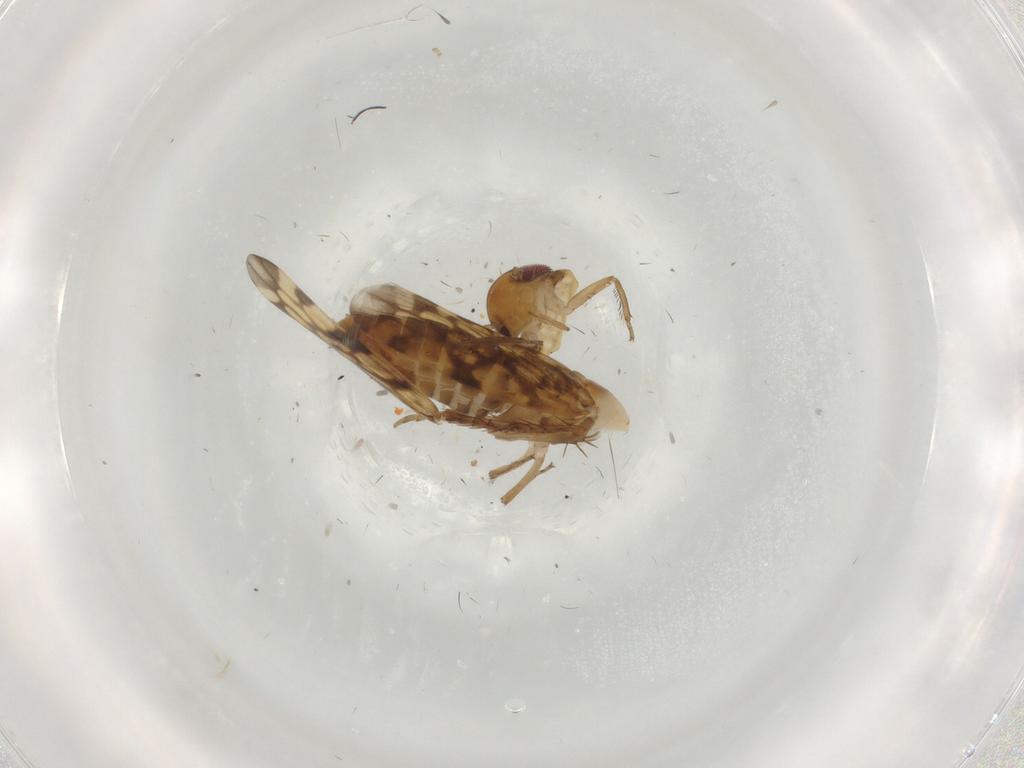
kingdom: Animalia
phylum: Arthropoda
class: Insecta
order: Hemiptera
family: Cicadellidae
